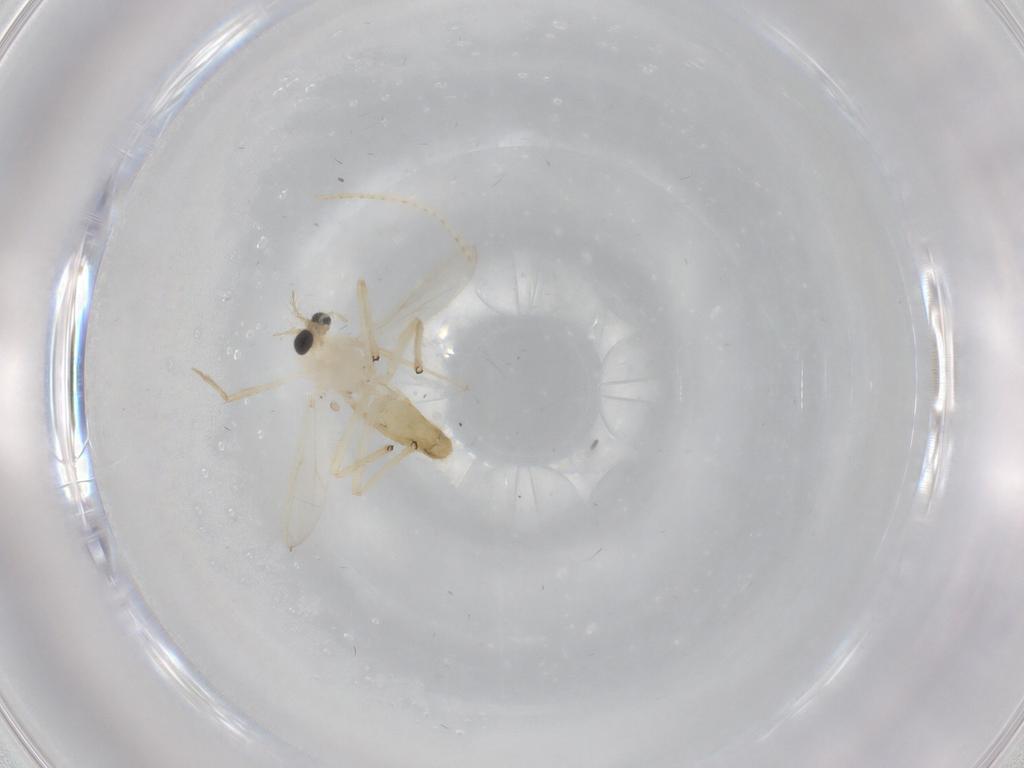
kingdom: Animalia
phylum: Arthropoda
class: Insecta
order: Diptera
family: Chironomidae
